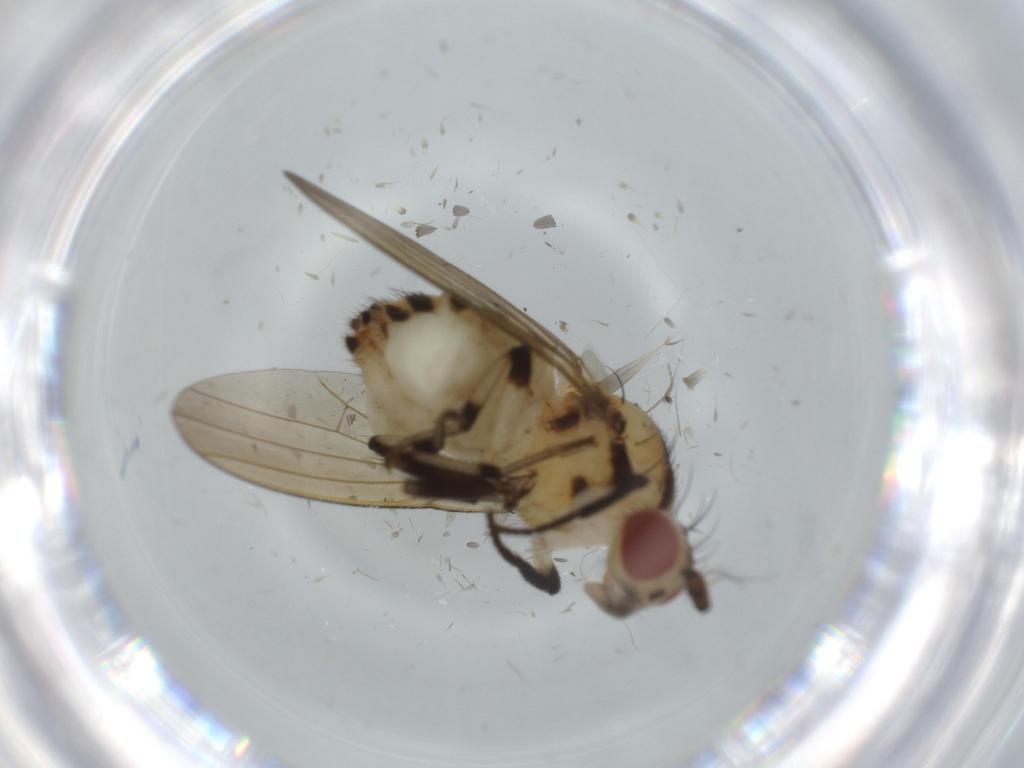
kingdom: Animalia
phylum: Arthropoda
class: Insecta
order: Diptera
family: Lauxaniidae
